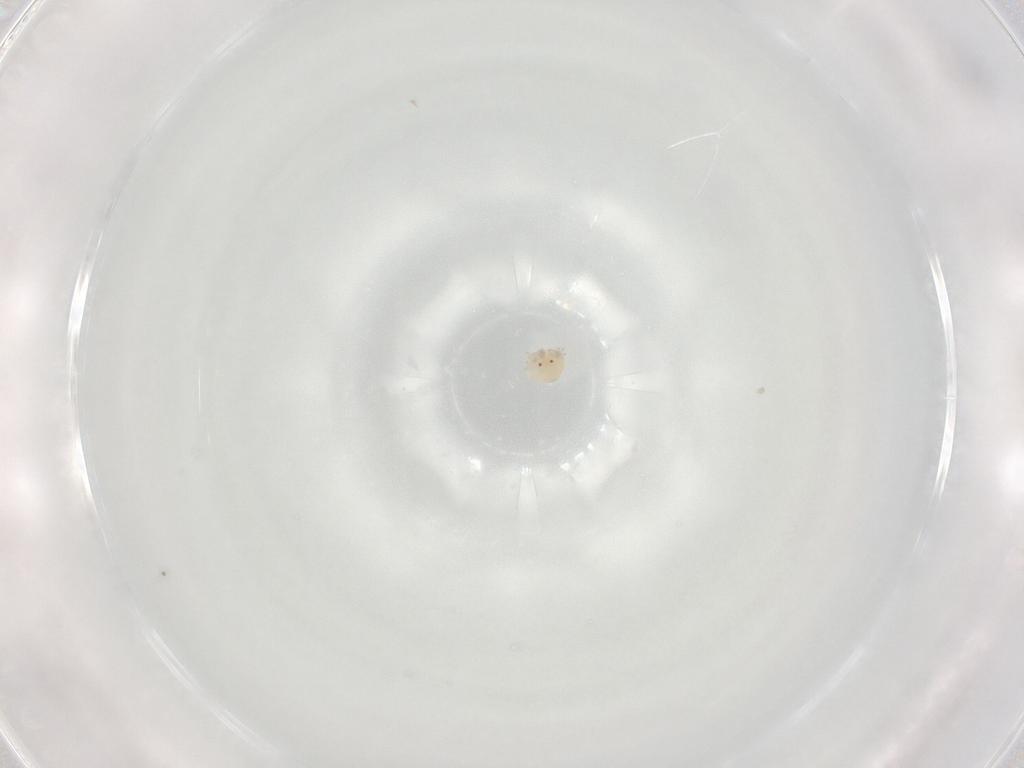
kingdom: Animalia
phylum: Arthropoda
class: Arachnida
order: Trombidiformes
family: Arrenuridae
